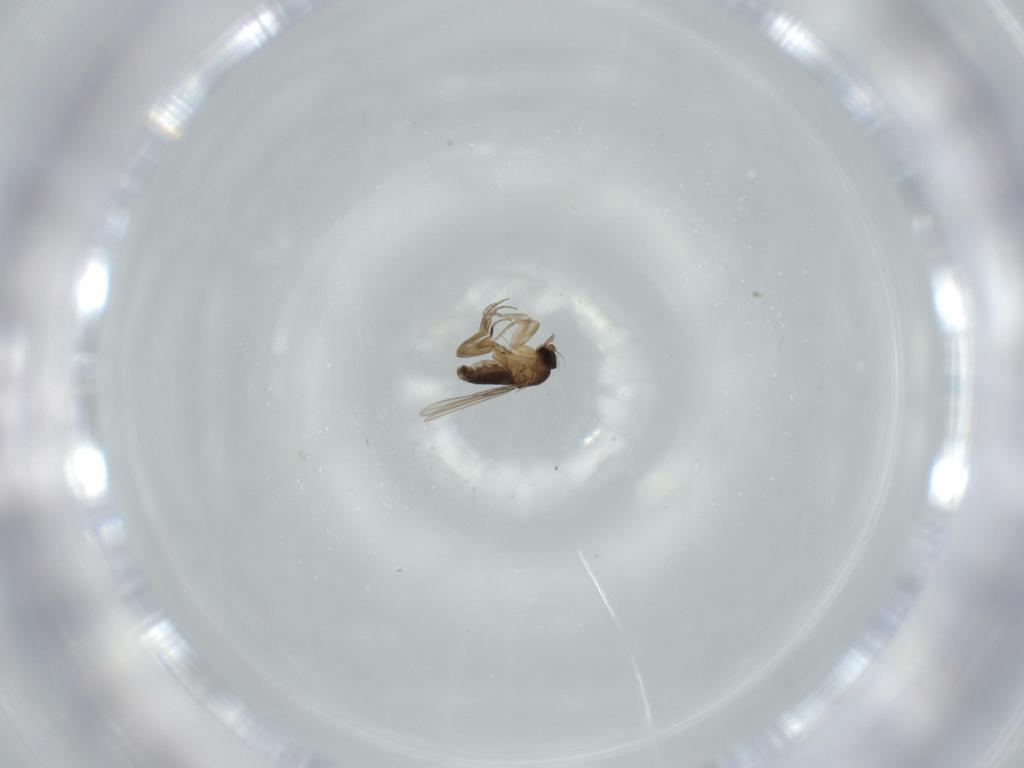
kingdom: Animalia
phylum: Arthropoda
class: Insecta
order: Diptera
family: Phoridae
